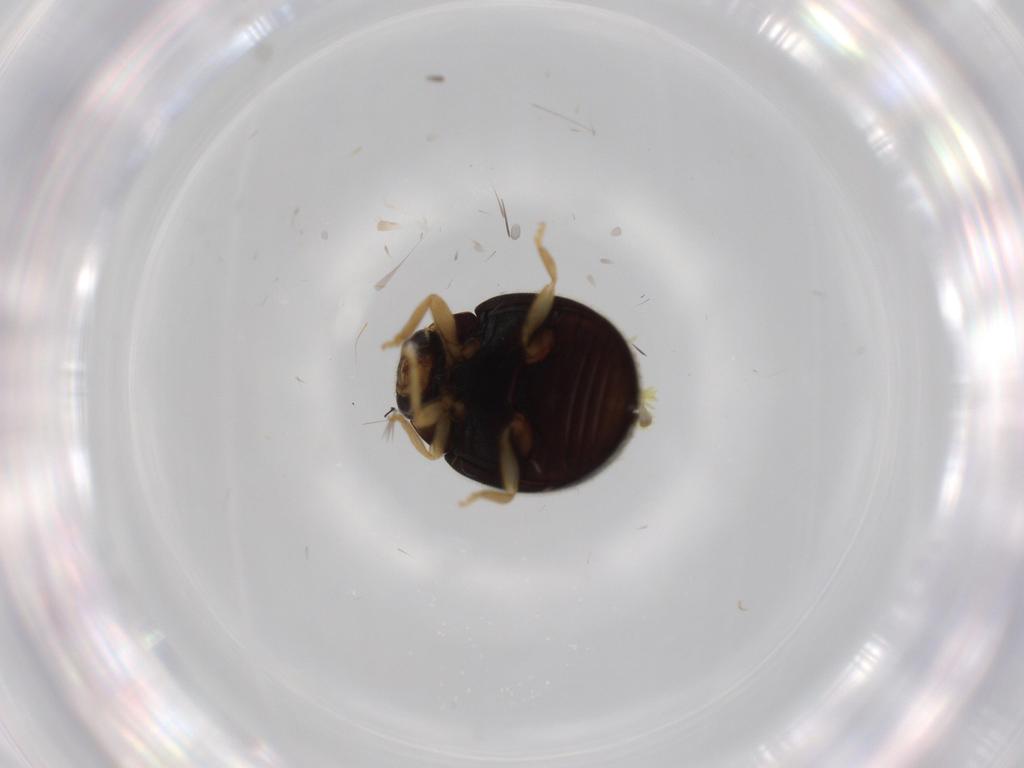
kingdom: Animalia
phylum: Arthropoda
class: Insecta
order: Coleoptera
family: Coccinellidae
